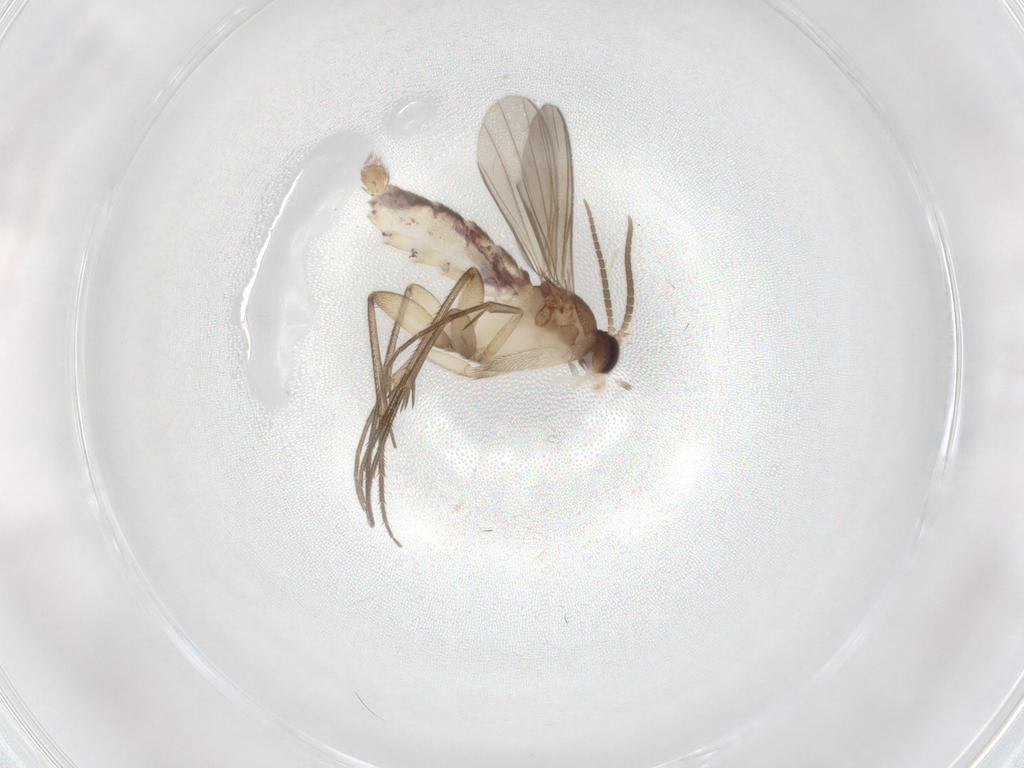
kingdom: Animalia
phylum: Arthropoda
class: Insecta
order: Diptera
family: Mycetophilidae
